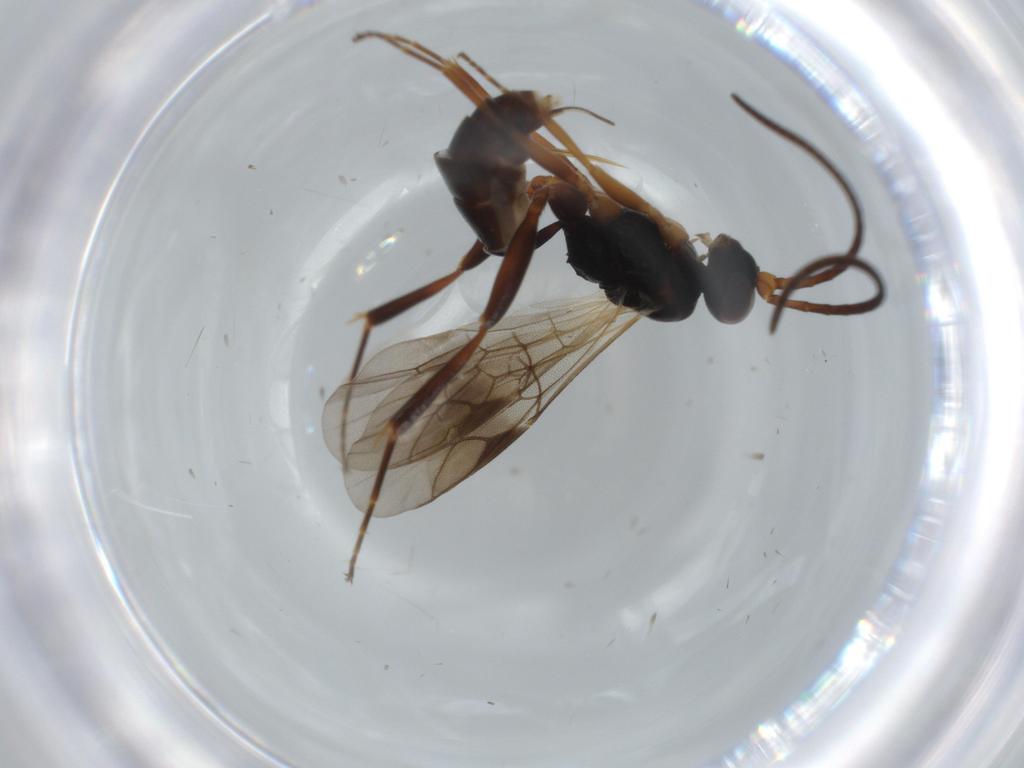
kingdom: Animalia
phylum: Arthropoda
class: Insecta
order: Hymenoptera
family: Ichneumonidae
